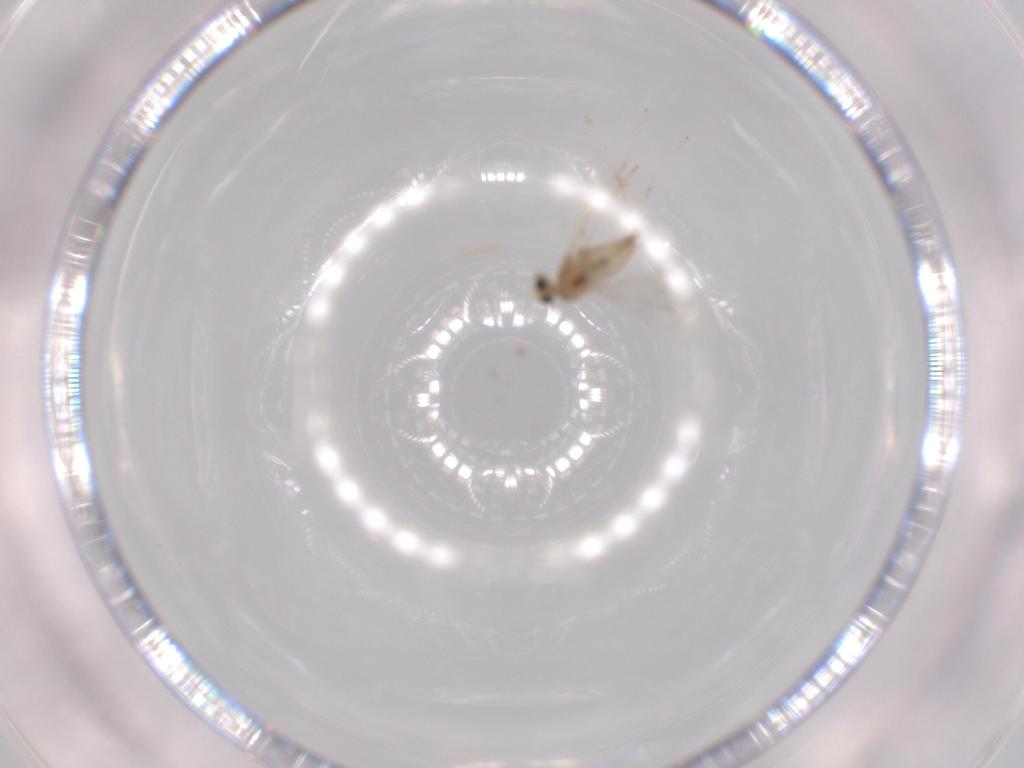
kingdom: Animalia
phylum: Arthropoda
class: Insecta
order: Diptera
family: Cecidomyiidae
